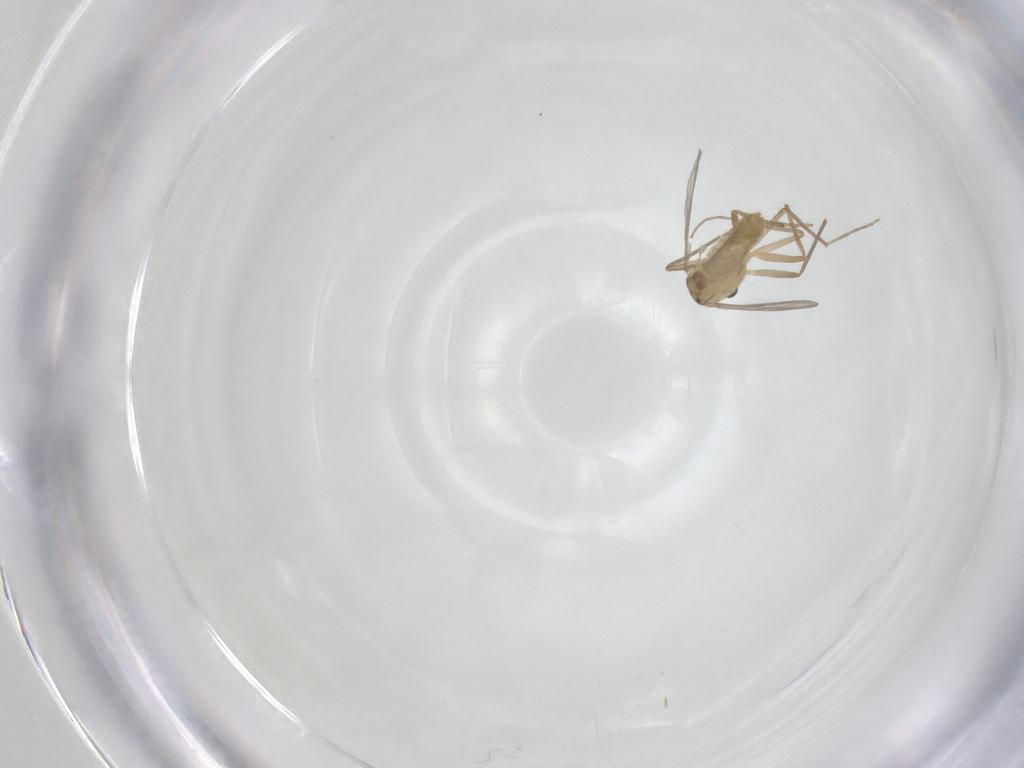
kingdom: Animalia
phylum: Arthropoda
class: Insecta
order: Diptera
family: Chironomidae
